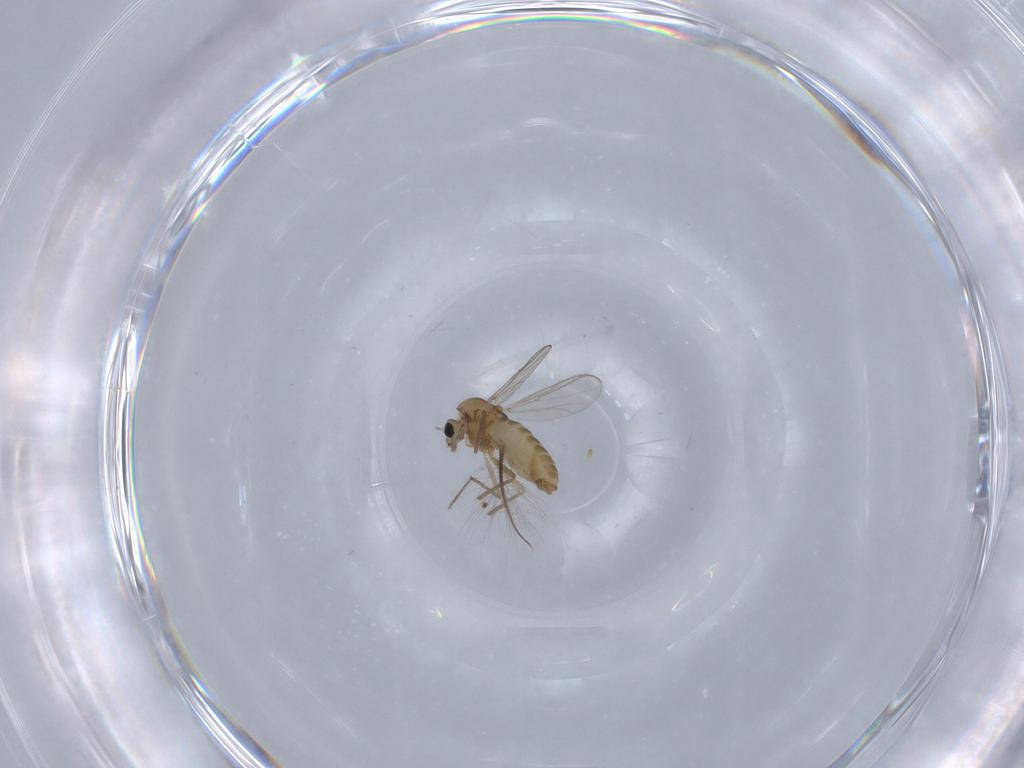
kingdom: Animalia
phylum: Arthropoda
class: Insecta
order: Diptera
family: Chironomidae
